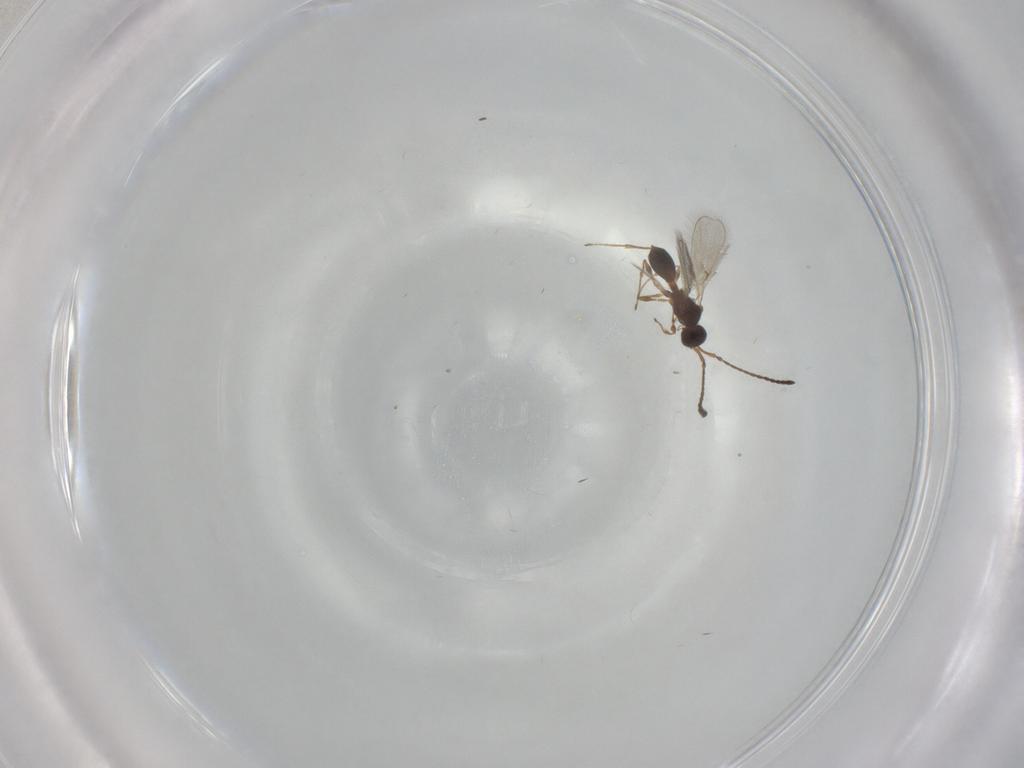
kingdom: Animalia
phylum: Arthropoda
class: Insecta
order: Hymenoptera
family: Diapriidae
